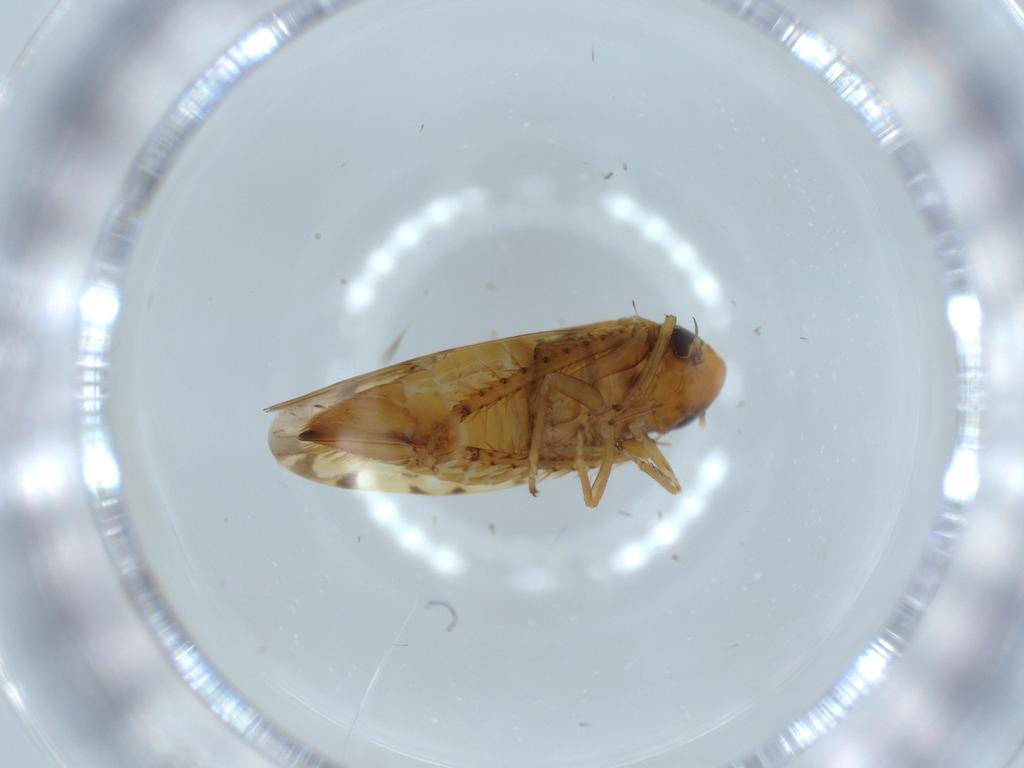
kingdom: Animalia
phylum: Arthropoda
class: Insecta
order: Hemiptera
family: Cicadellidae
